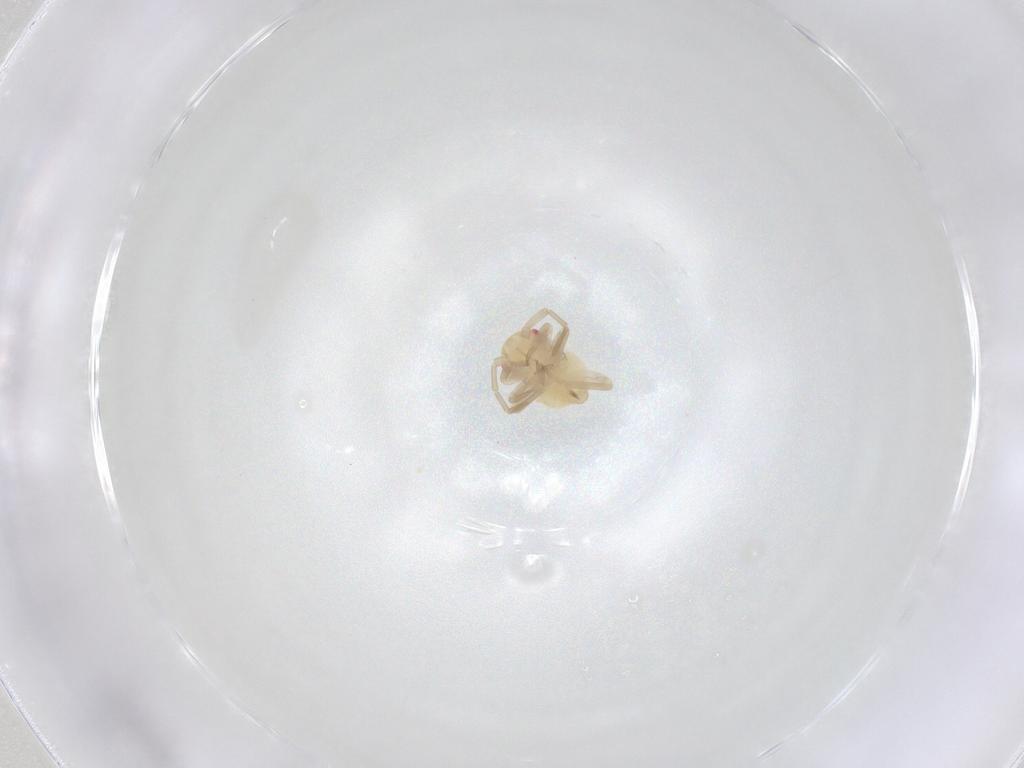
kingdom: Animalia
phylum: Arthropoda
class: Insecta
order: Hemiptera
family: Miridae
